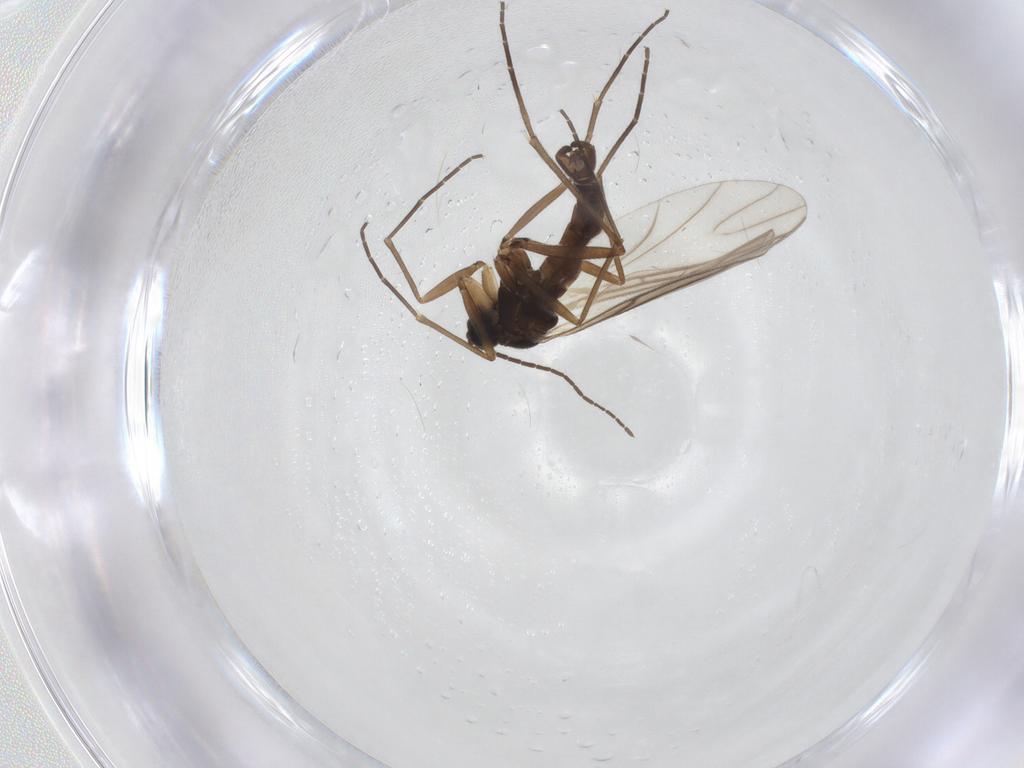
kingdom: Animalia
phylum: Arthropoda
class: Insecta
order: Diptera
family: Sciaridae
